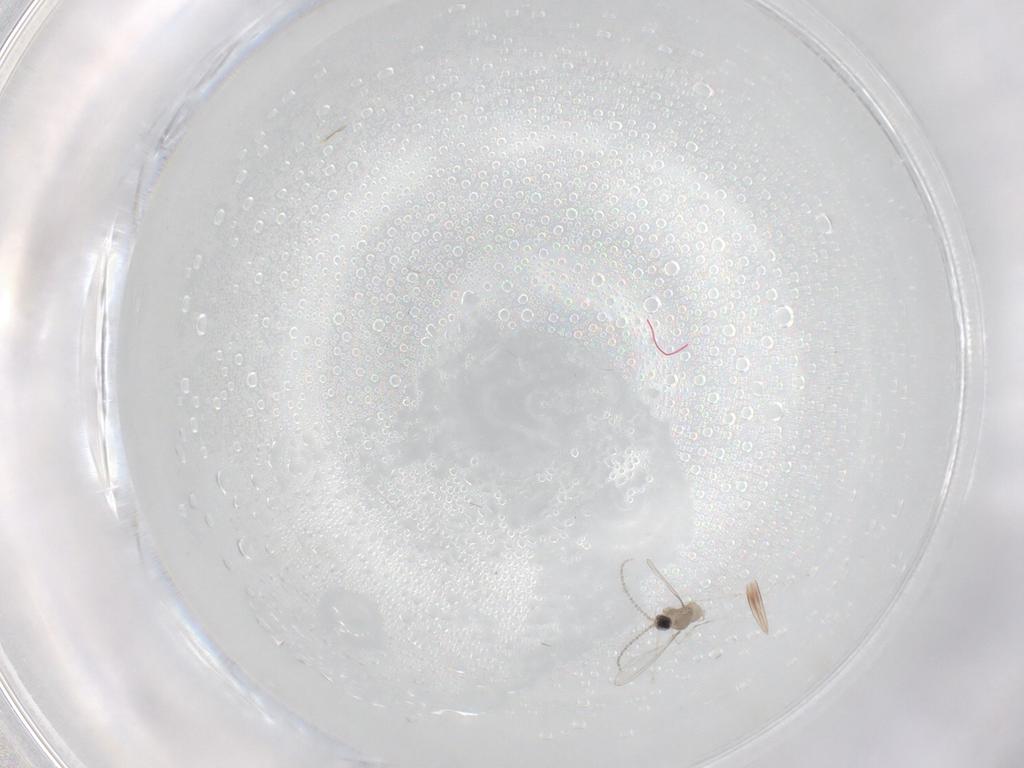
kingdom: Animalia
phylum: Arthropoda
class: Insecta
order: Diptera
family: Cecidomyiidae
